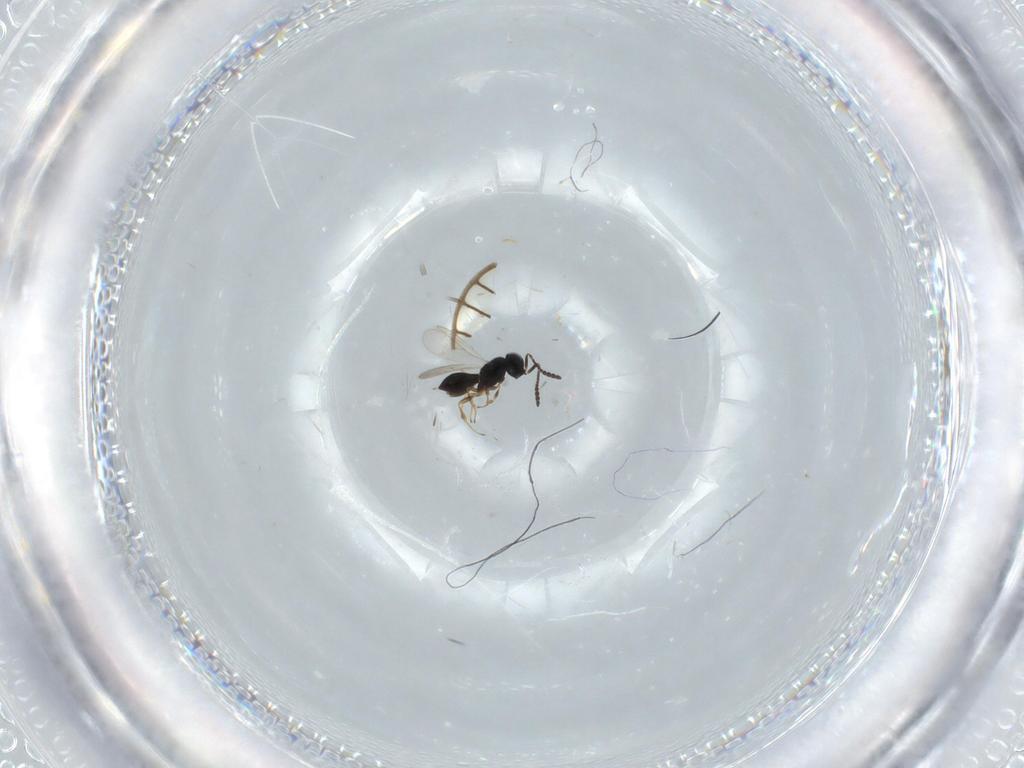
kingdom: Animalia
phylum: Arthropoda
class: Insecta
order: Hymenoptera
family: Scelionidae
